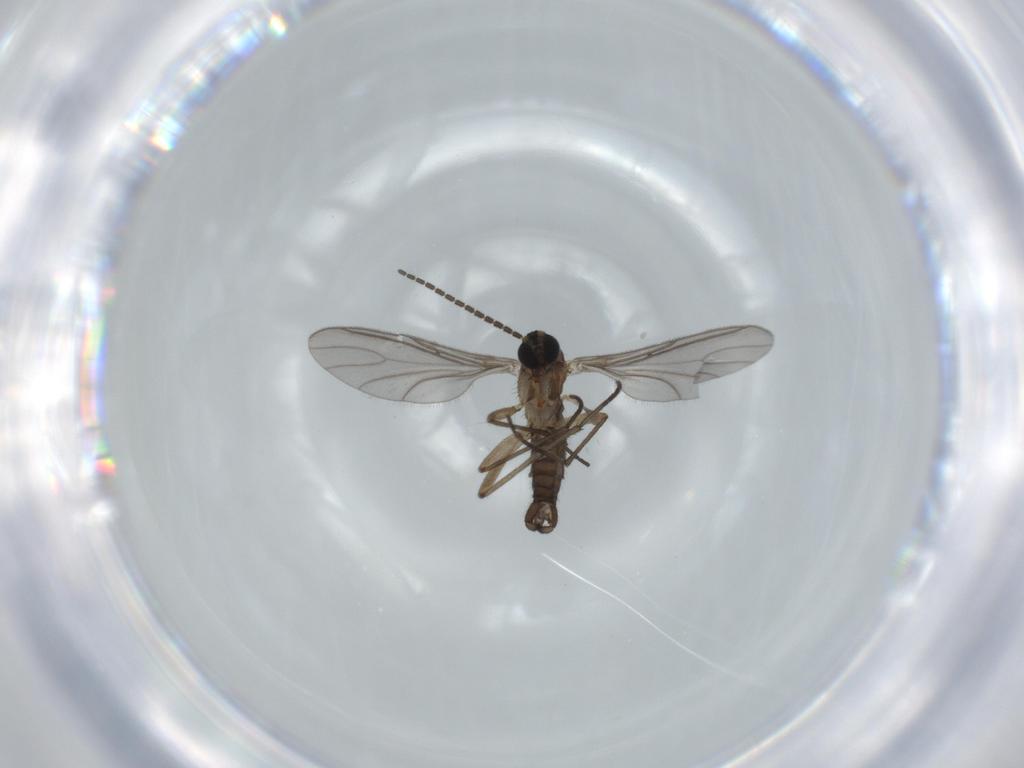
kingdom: Animalia
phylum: Arthropoda
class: Insecta
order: Diptera
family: Sciaridae
